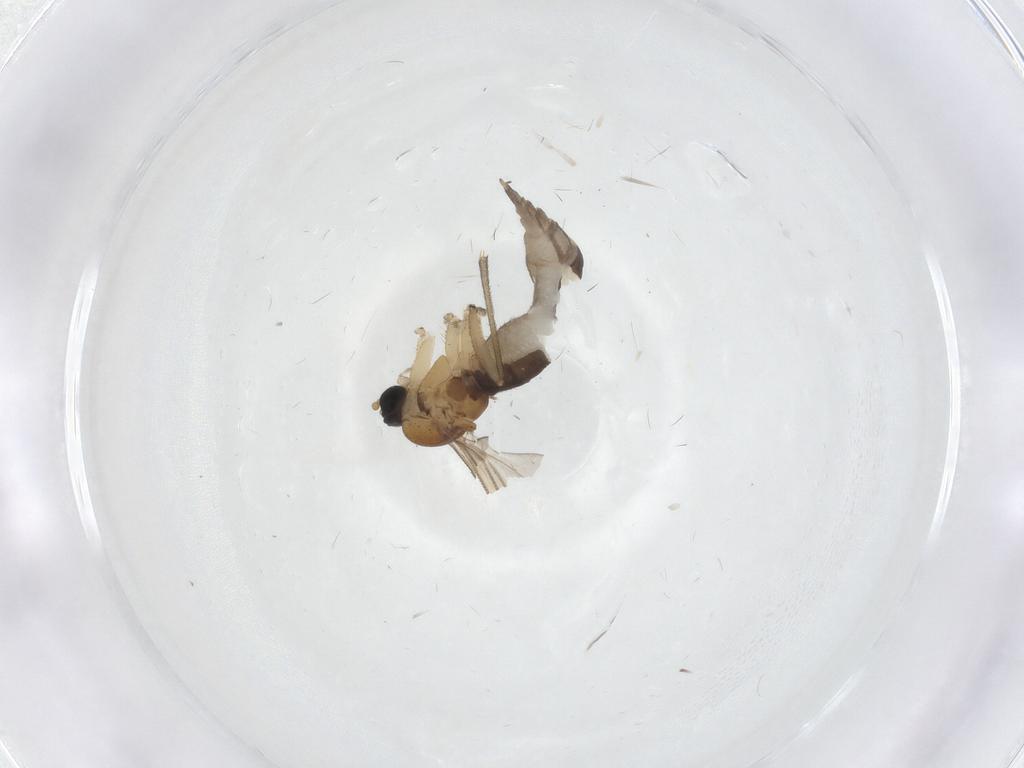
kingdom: Animalia
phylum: Arthropoda
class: Insecta
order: Diptera
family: Sciaridae
